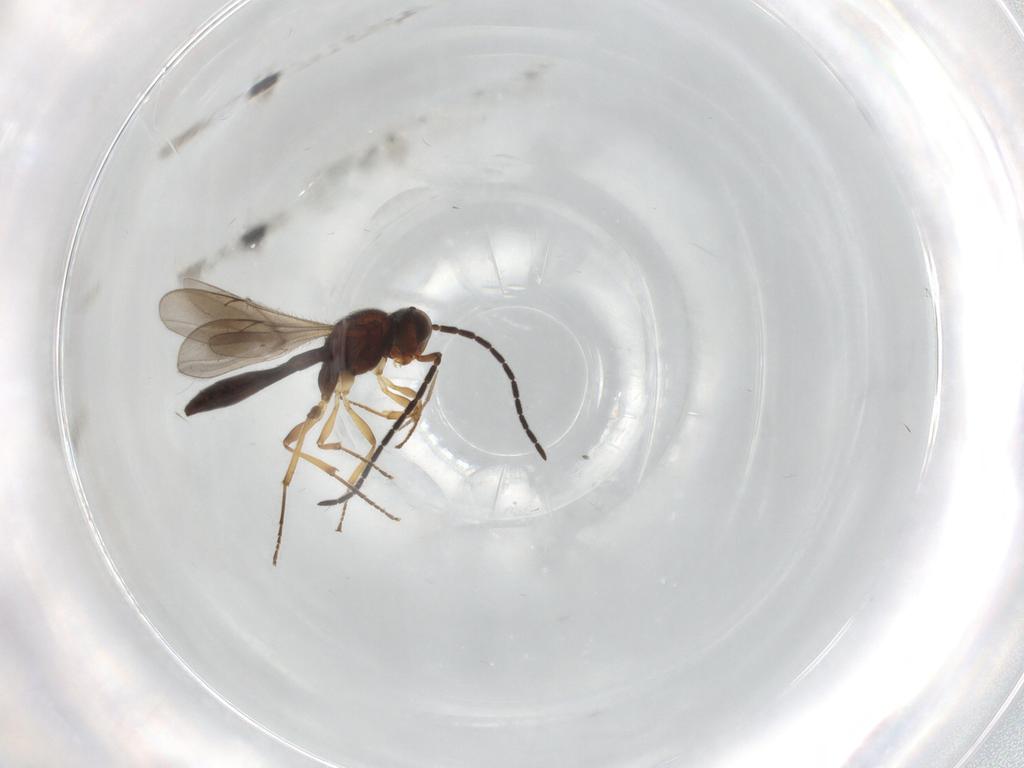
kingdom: Animalia
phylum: Arthropoda
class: Insecta
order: Hymenoptera
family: Scelionidae
